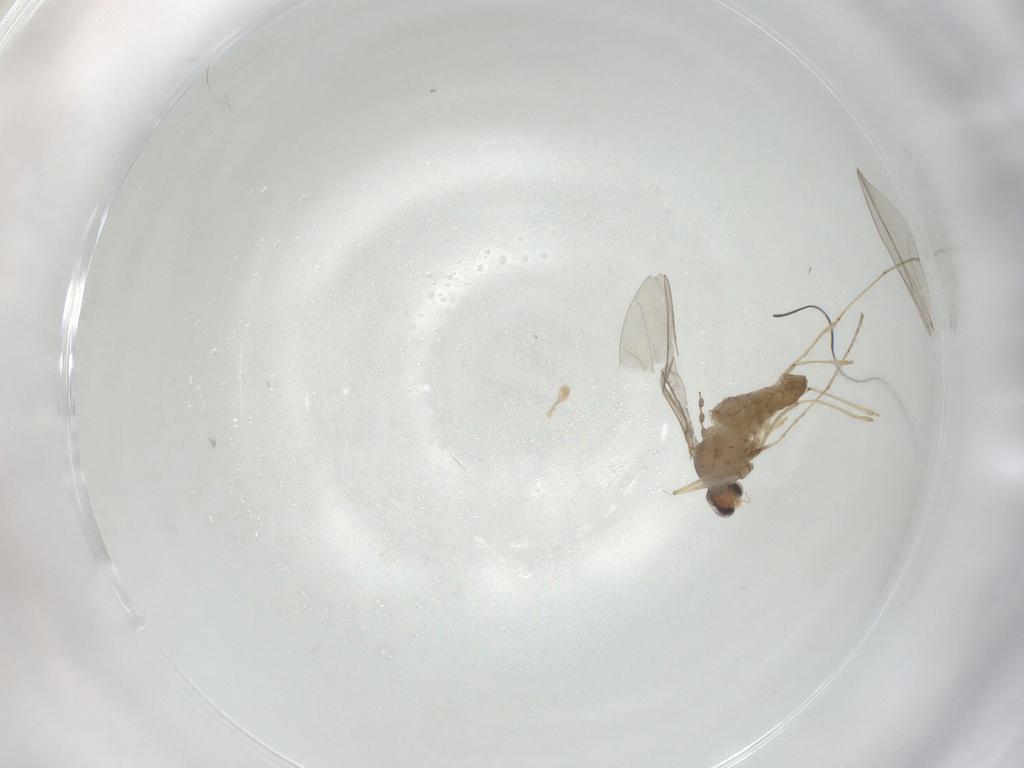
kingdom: Animalia
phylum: Arthropoda
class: Insecta
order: Diptera
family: Cecidomyiidae
